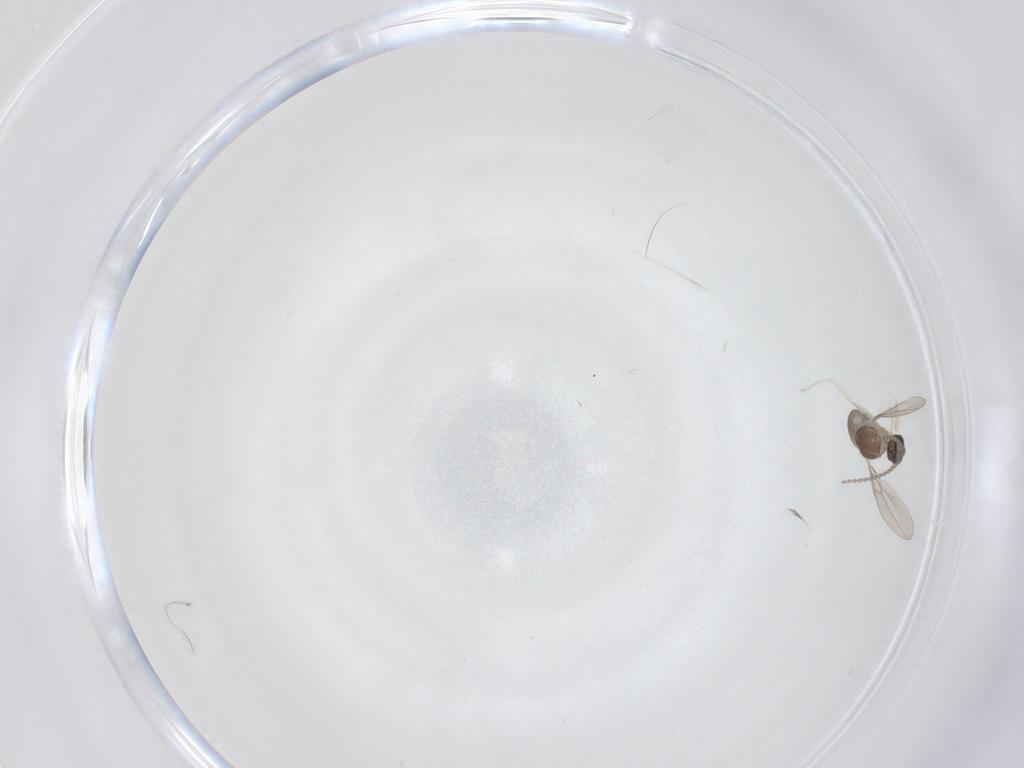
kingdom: Animalia
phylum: Arthropoda
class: Insecta
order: Diptera
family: Cecidomyiidae
